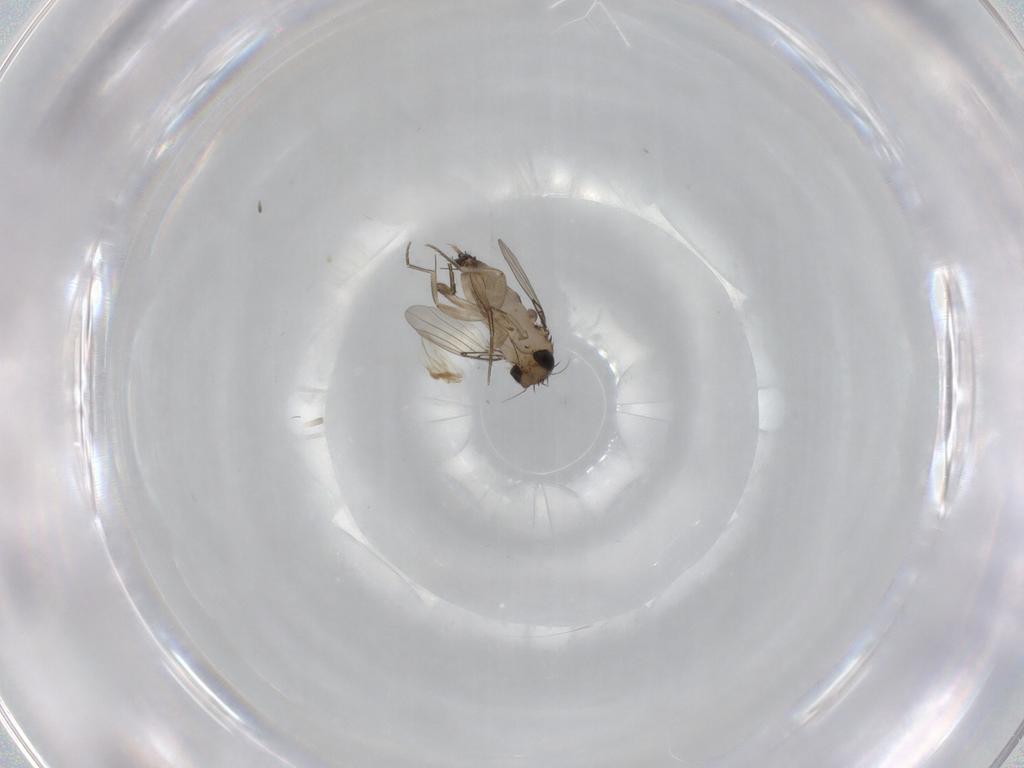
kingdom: Animalia
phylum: Arthropoda
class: Insecta
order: Diptera
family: Phoridae
